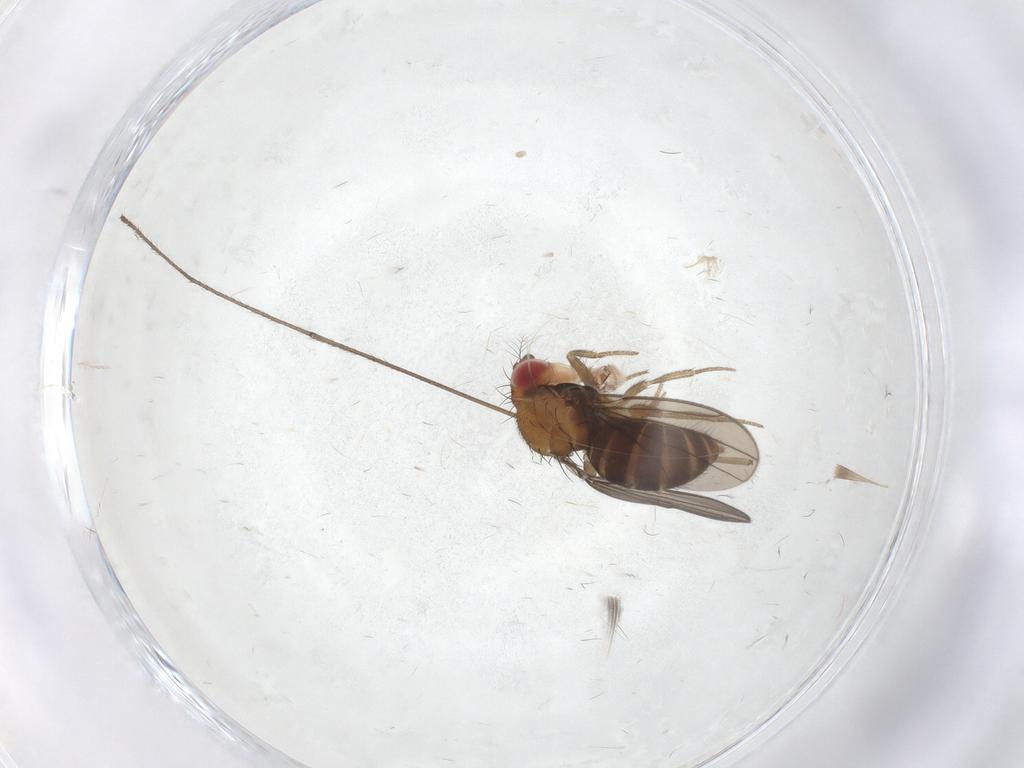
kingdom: Animalia
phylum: Arthropoda
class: Insecta
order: Diptera
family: Drosophilidae
